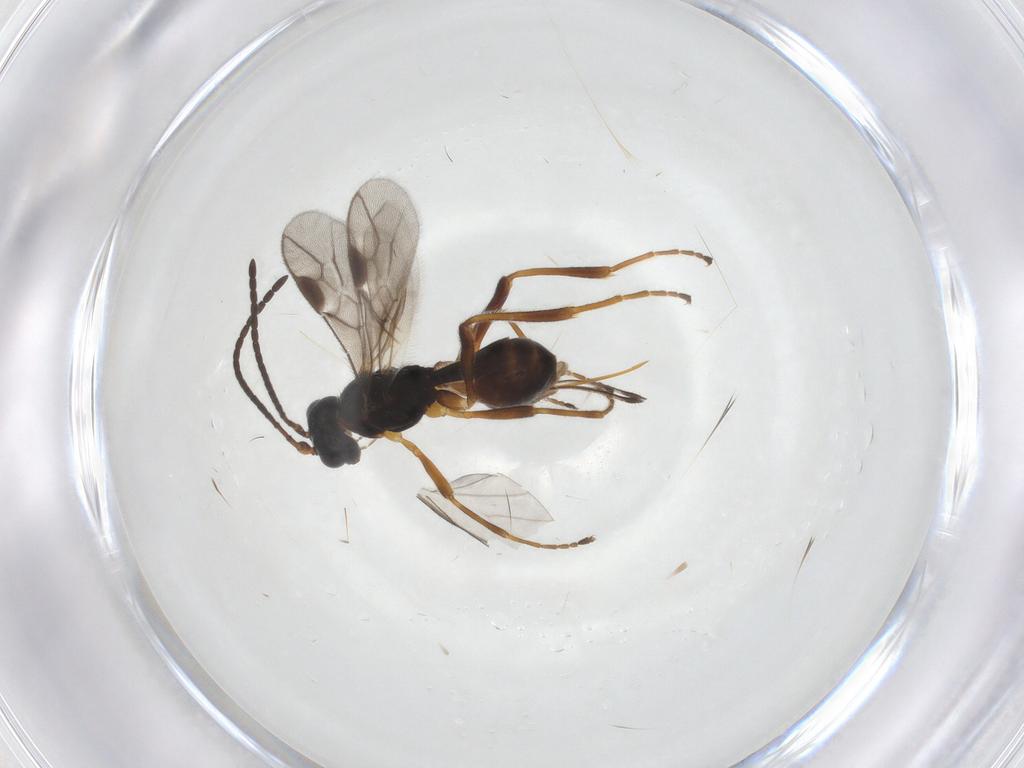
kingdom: Animalia
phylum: Arthropoda
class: Insecta
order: Hymenoptera
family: Braconidae
